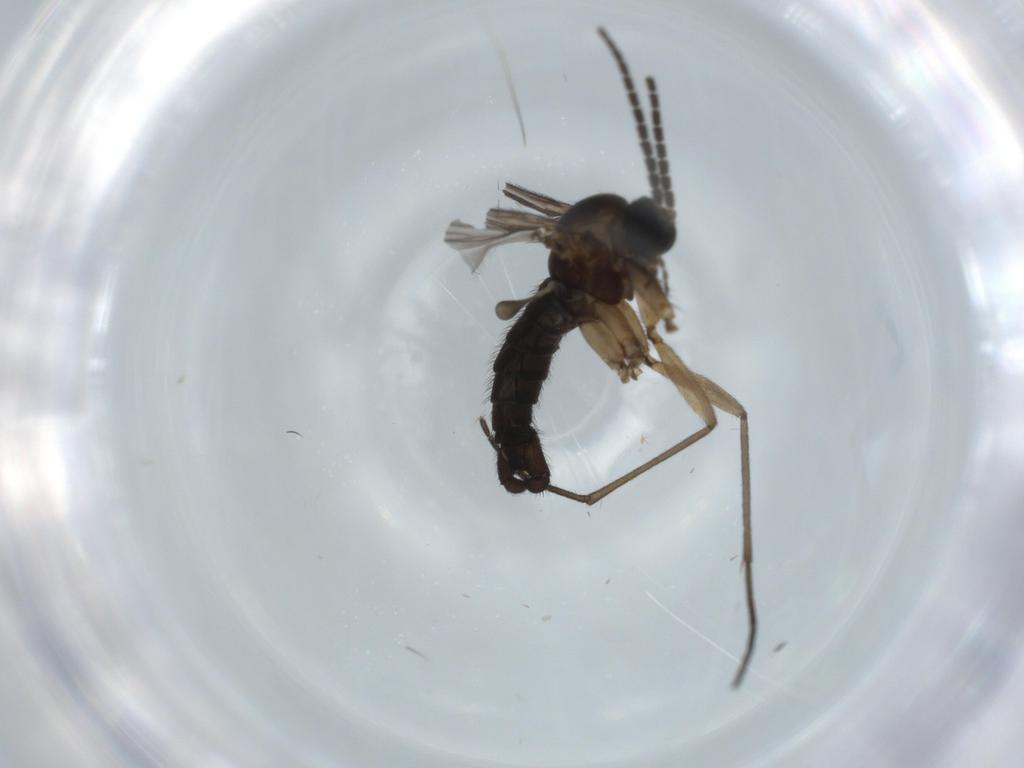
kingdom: Animalia
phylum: Arthropoda
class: Insecta
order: Diptera
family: Sciaridae
